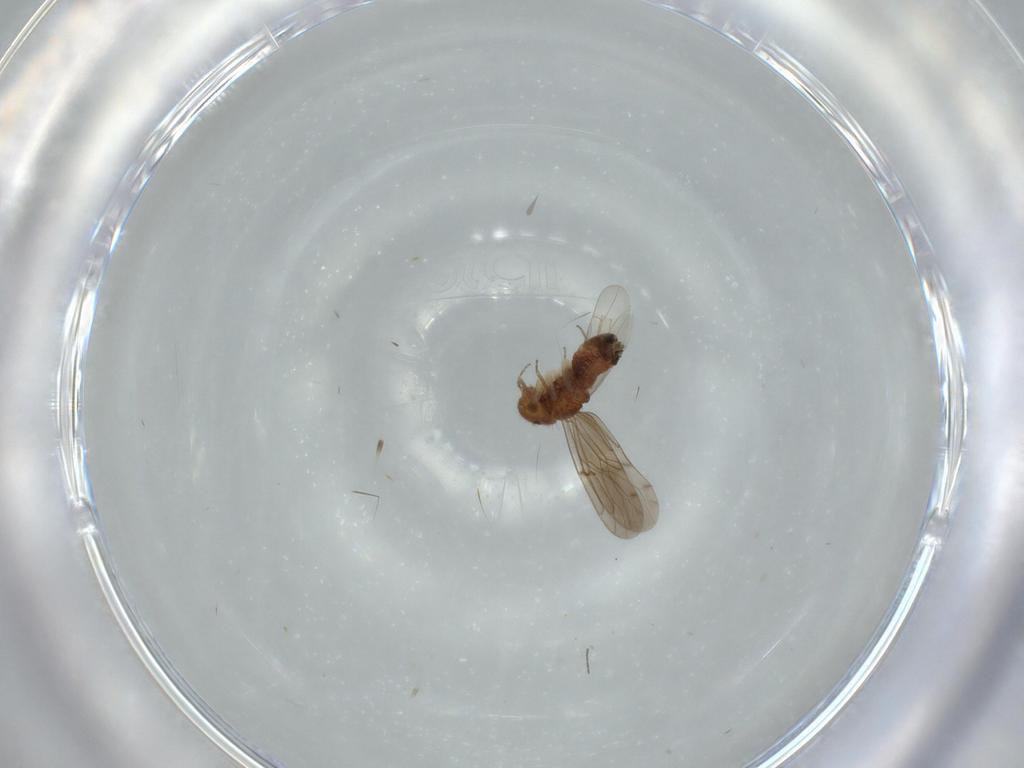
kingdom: Animalia
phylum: Arthropoda
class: Insecta
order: Psocodea
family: Ectopsocidae
